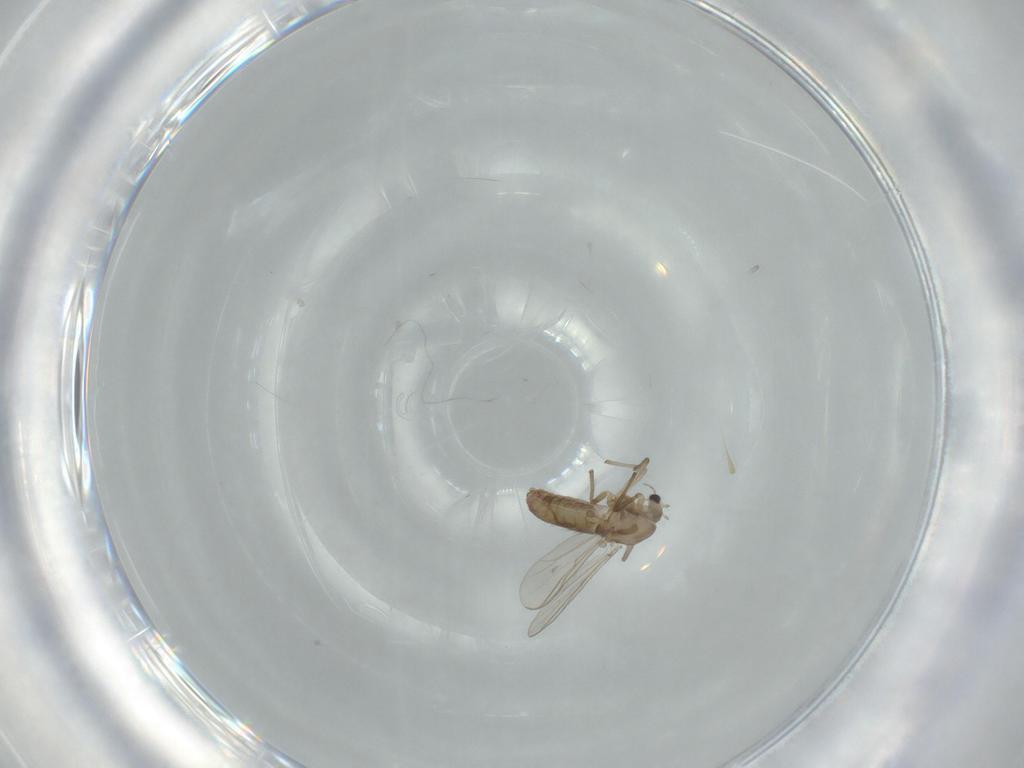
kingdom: Animalia
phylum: Arthropoda
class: Insecta
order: Diptera
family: Chironomidae
